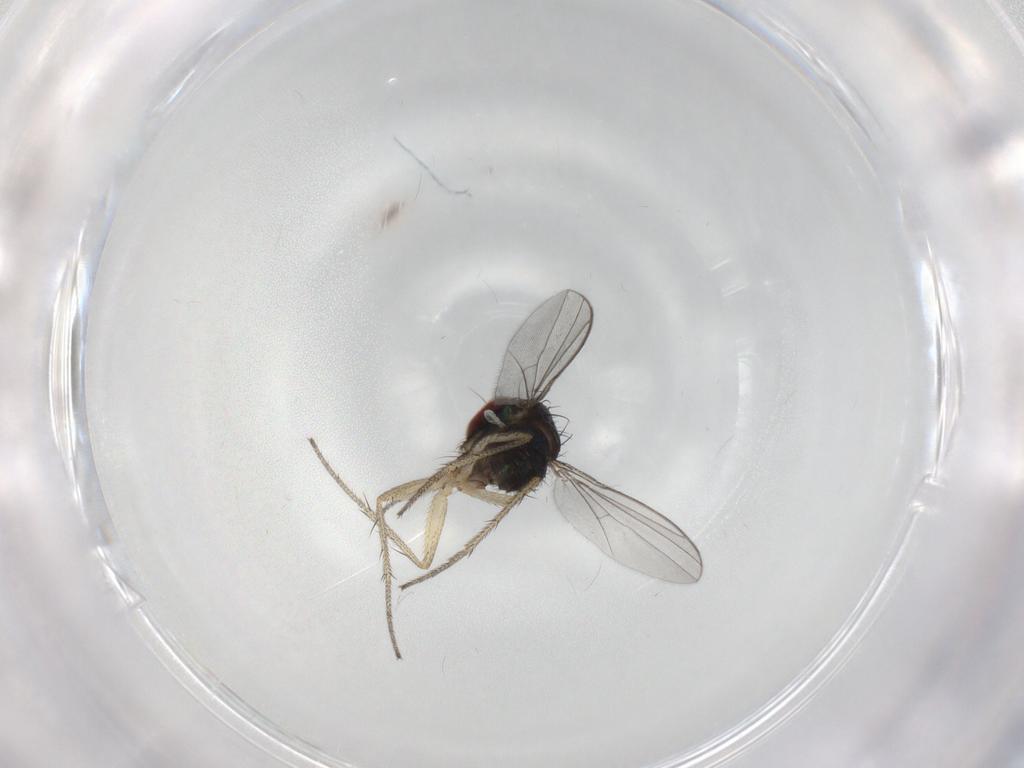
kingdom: Animalia
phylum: Arthropoda
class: Insecta
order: Diptera
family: Dolichopodidae
